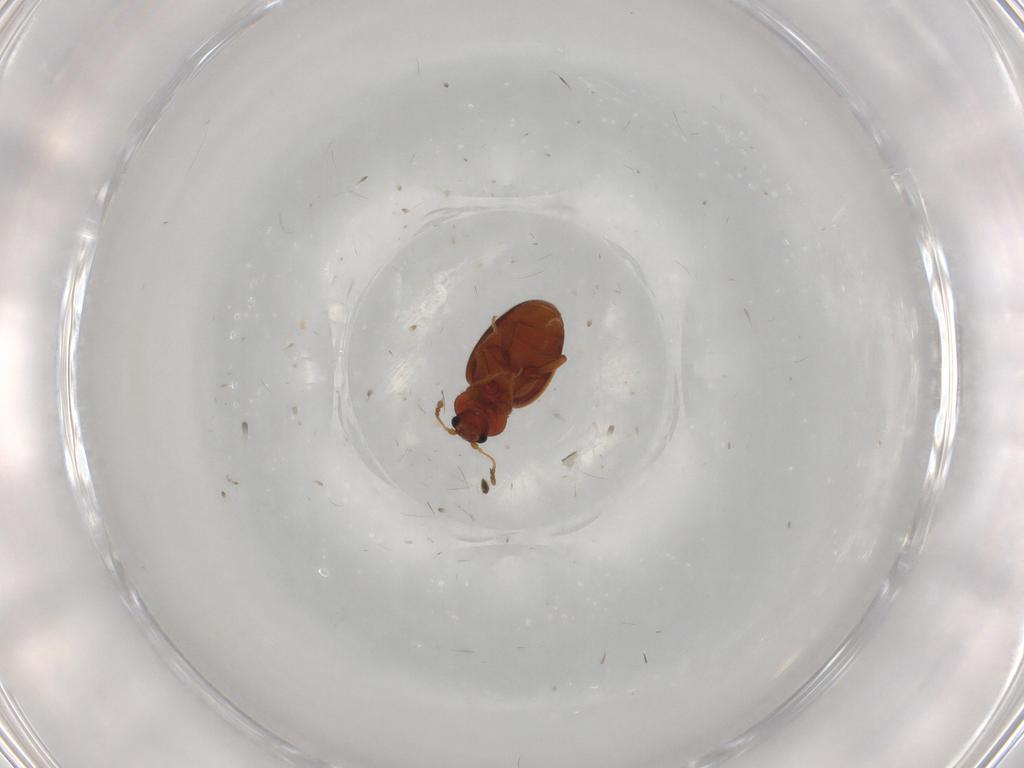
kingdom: Animalia
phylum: Arthropoda
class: Insecta
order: Coleoptera
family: Latridiidae
